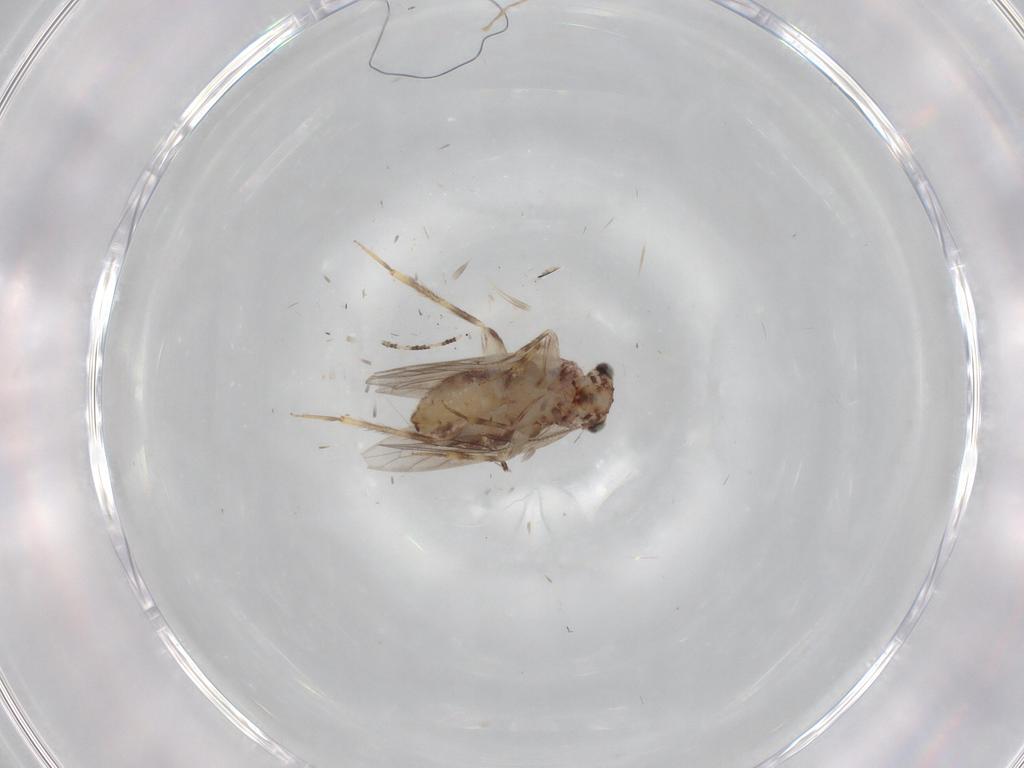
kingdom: Animalia
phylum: Arthropoda
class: Insecta
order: Psocodea
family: Lepidopsocidae
